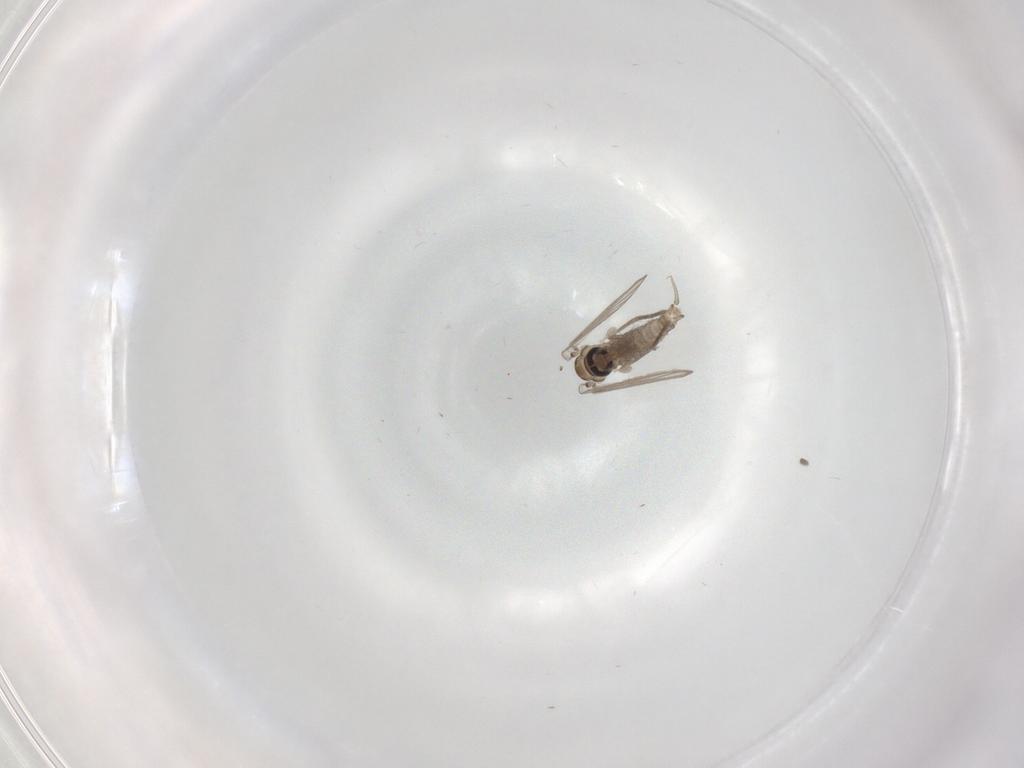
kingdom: Animalia
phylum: Arthropoda
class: Insecta
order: Diptera
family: Psychodidae
